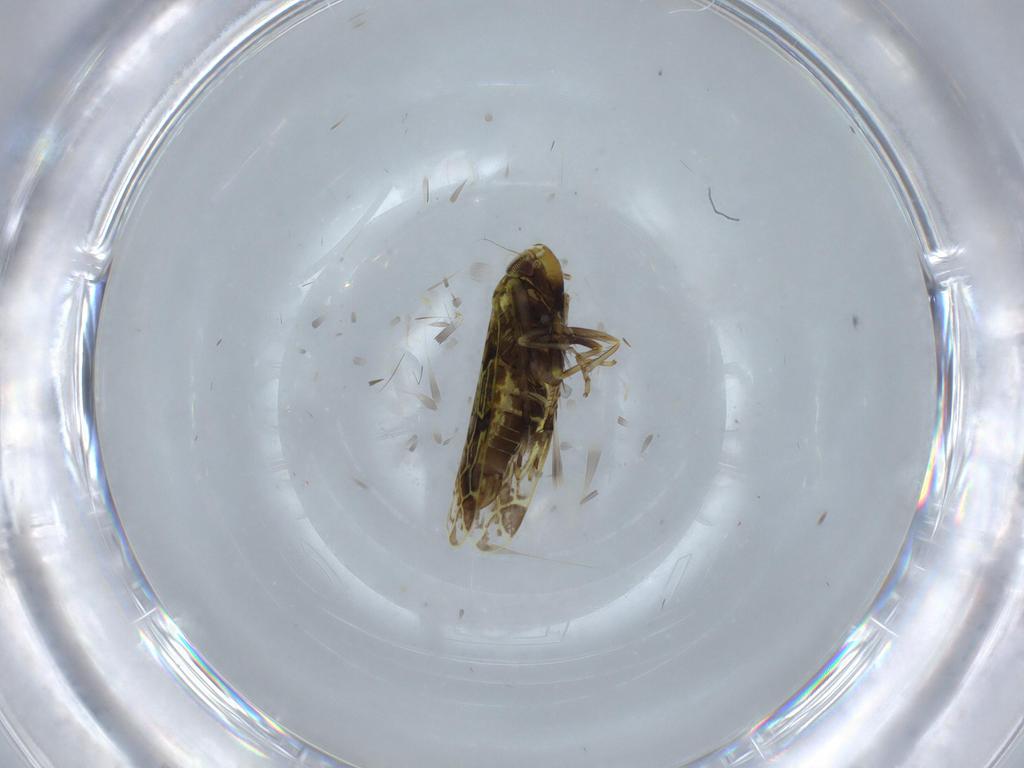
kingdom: Animalia
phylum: Arthropoda
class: Insecta
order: Hemiptera
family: Cicadellidae
